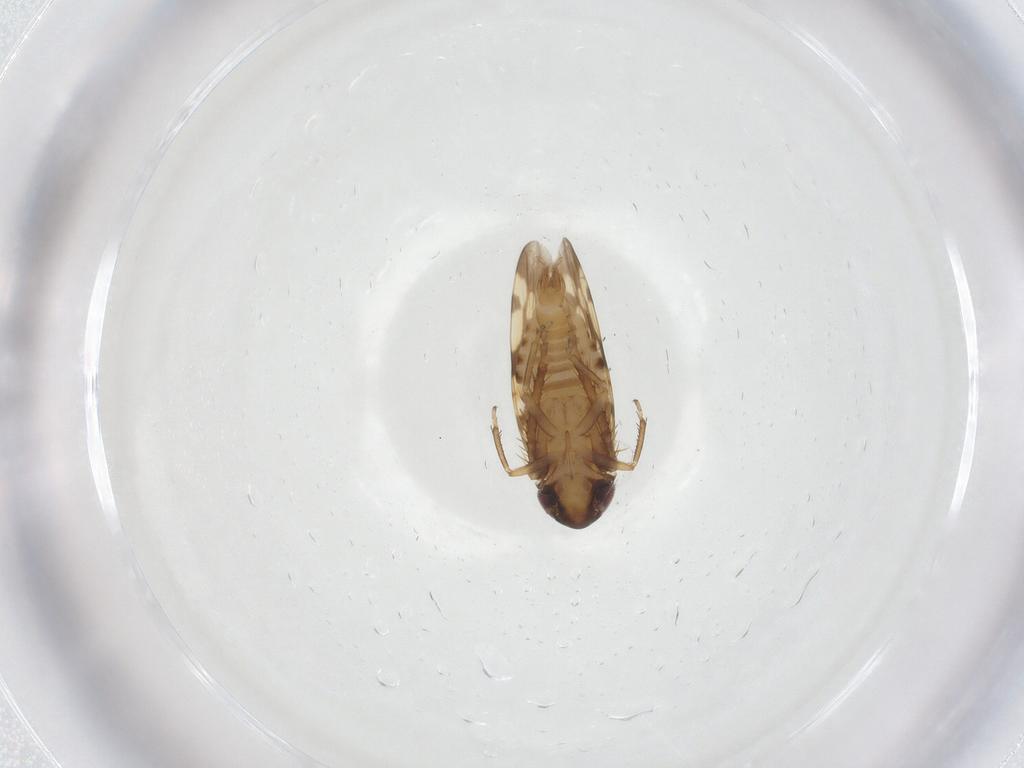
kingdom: Animalia
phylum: Arthropoda
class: Insecta
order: Hemiptera
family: Cicadellidae
